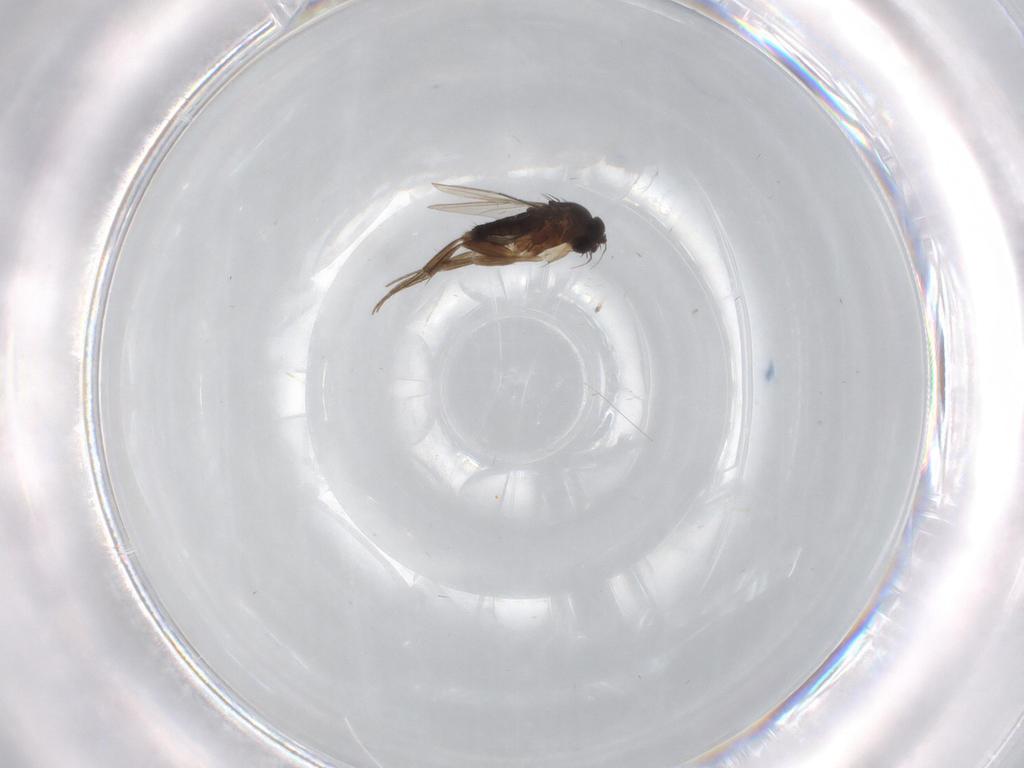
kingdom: Animalia
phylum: Arthropoda
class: Insecta
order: Diptera
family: Phoridae
